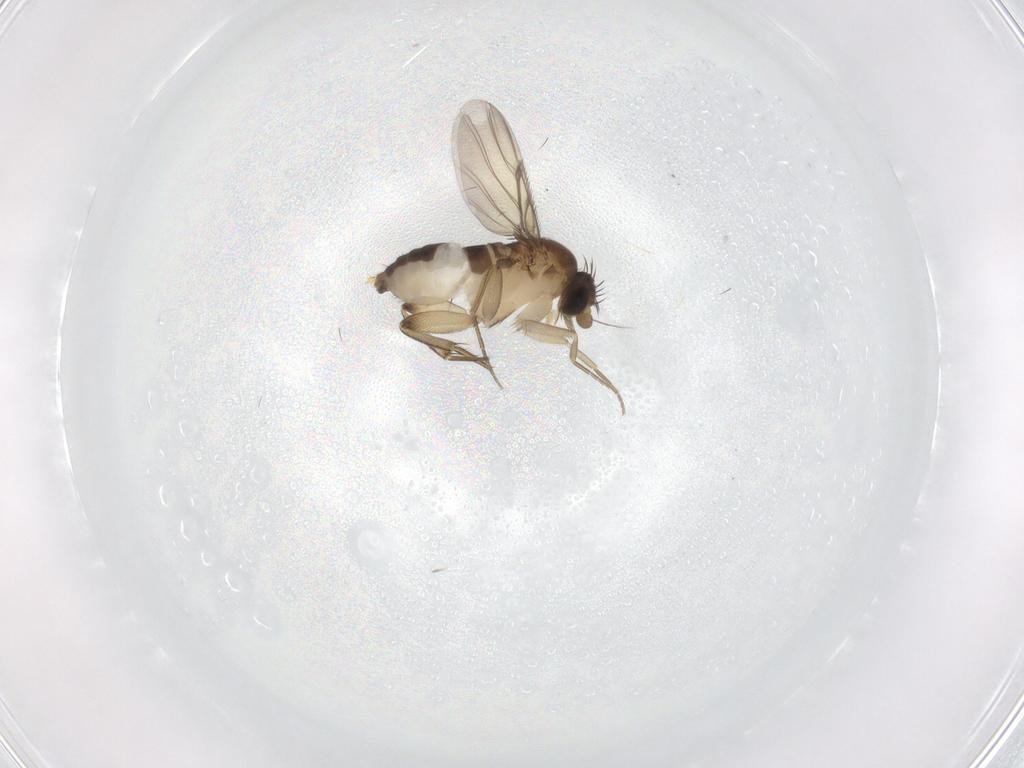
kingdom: Animalia
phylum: Arthropoda
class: Insecta
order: Diptera
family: Phoridae
